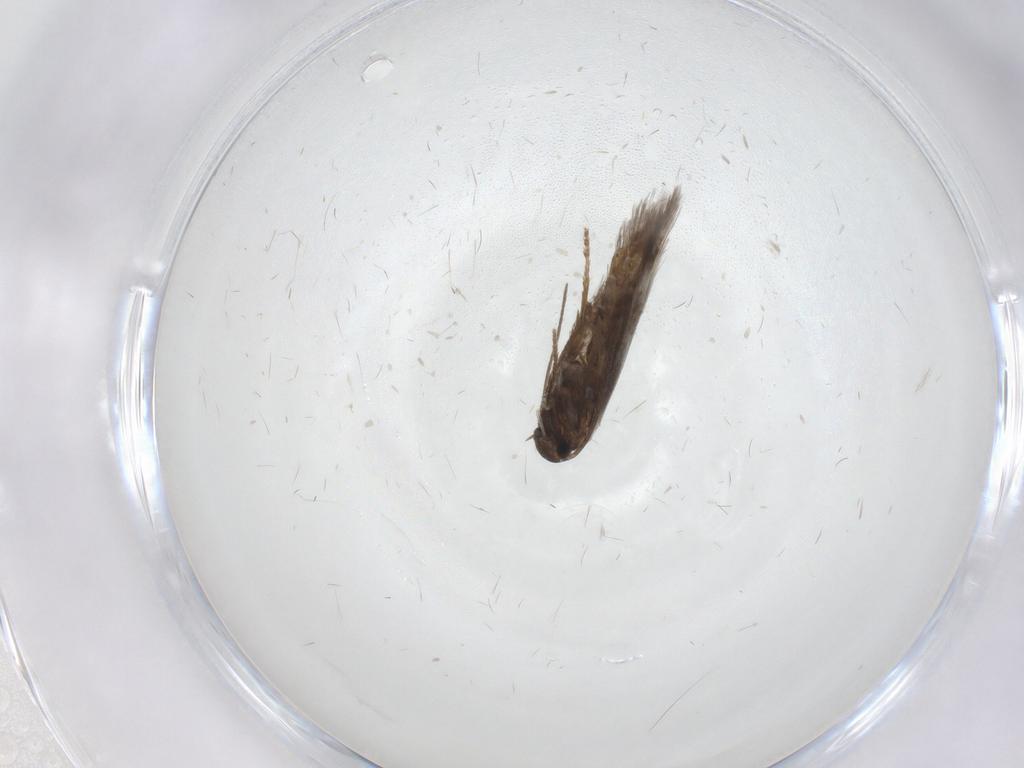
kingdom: Animalia
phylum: Arthropoda
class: Insecta
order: Lepidoptera
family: Heliozelidae
